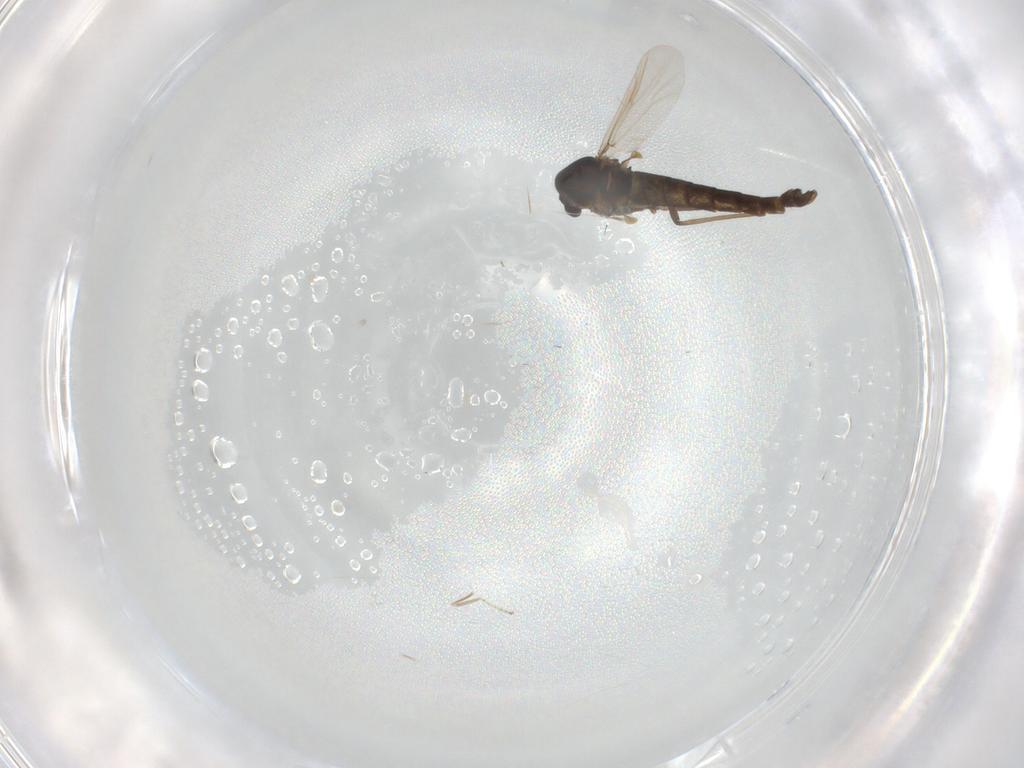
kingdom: Animalia
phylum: Arthropoda
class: Insecta
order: Diptera
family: Chironomidae
